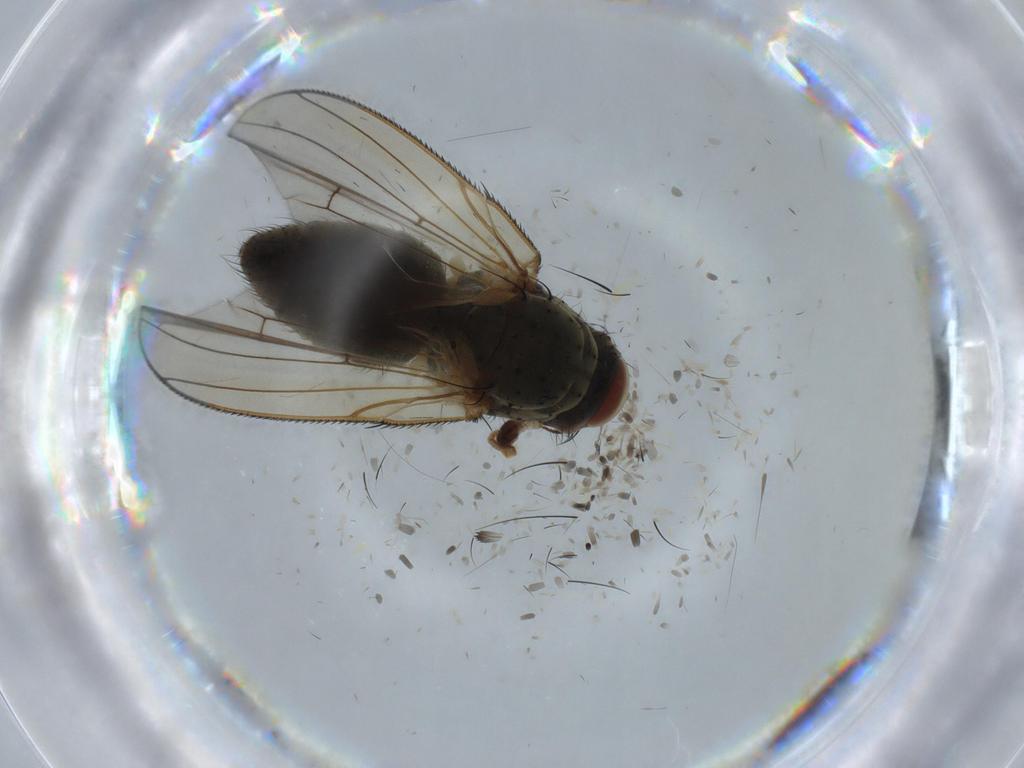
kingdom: Animalia
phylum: Arthropoda
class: Insecta
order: Diptera
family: Anthomyiidae
